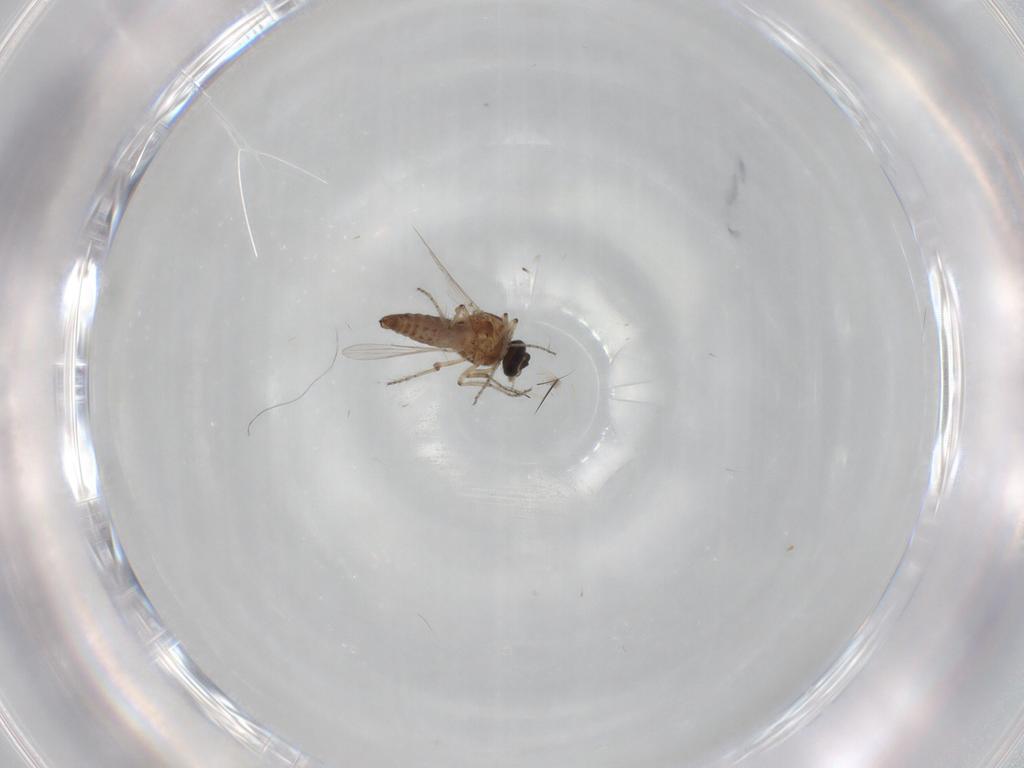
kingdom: Animalia
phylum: Arthropoda
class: Insecta
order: Diptera
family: Ceratopogonidae
